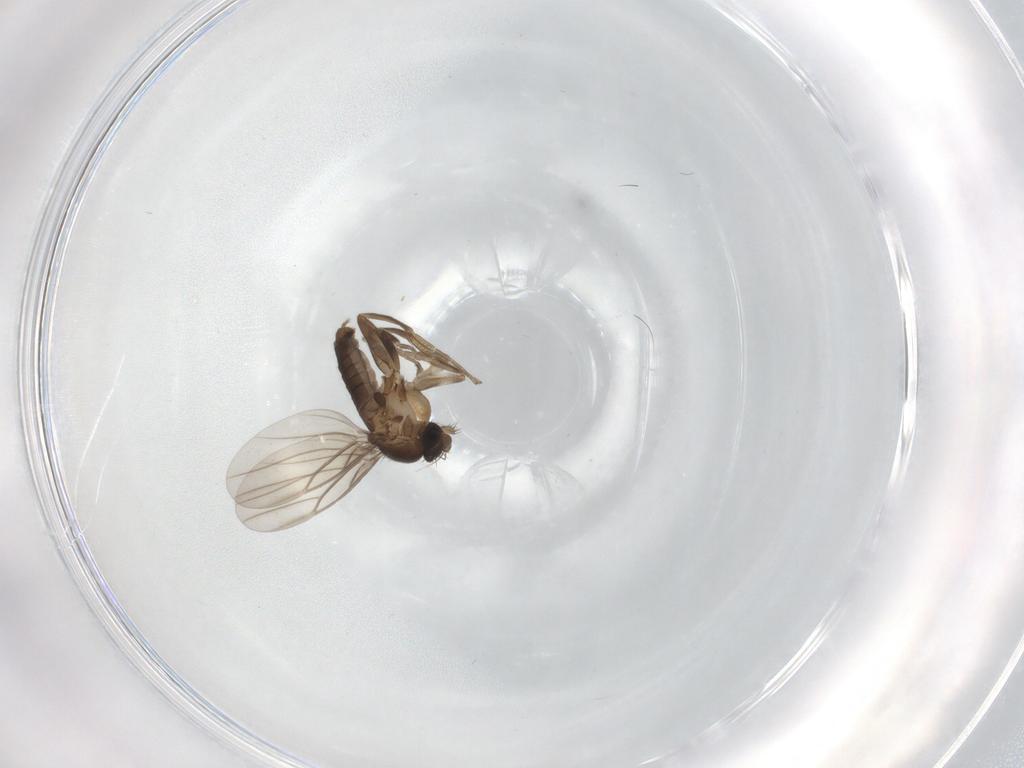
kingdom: Animalia
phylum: Arthropoda
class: Insecta
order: Diptera
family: Phoridae
